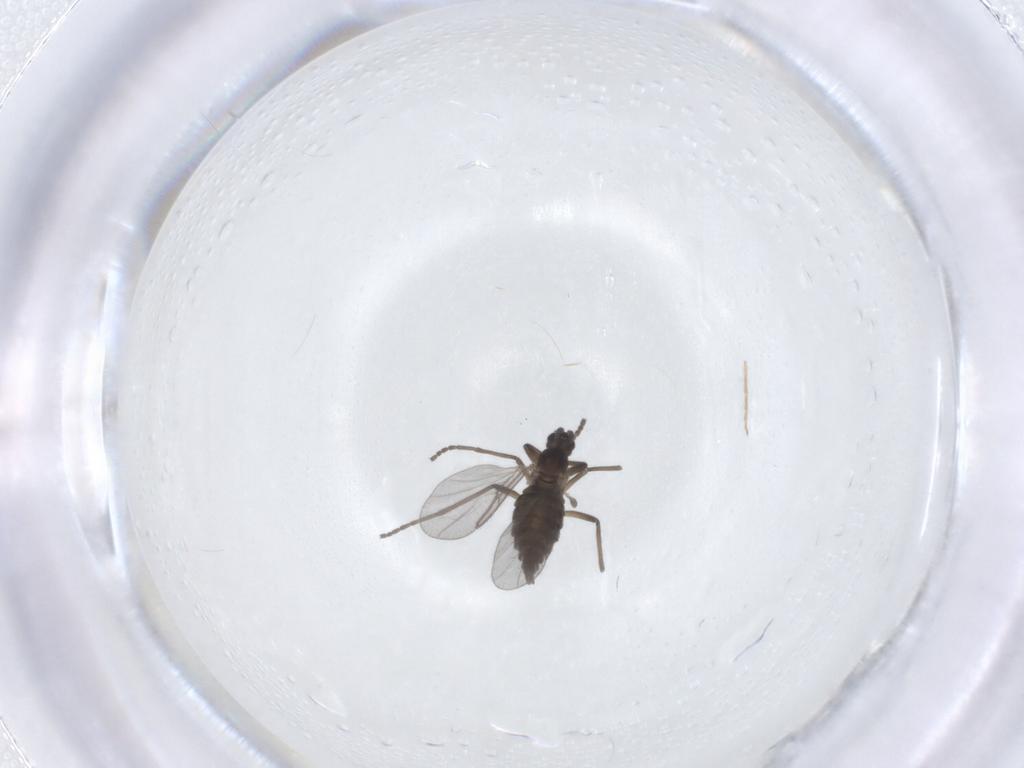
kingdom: Animalia
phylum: Arthropoda
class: Insecta
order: Diptera
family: Cecidomyiidae
